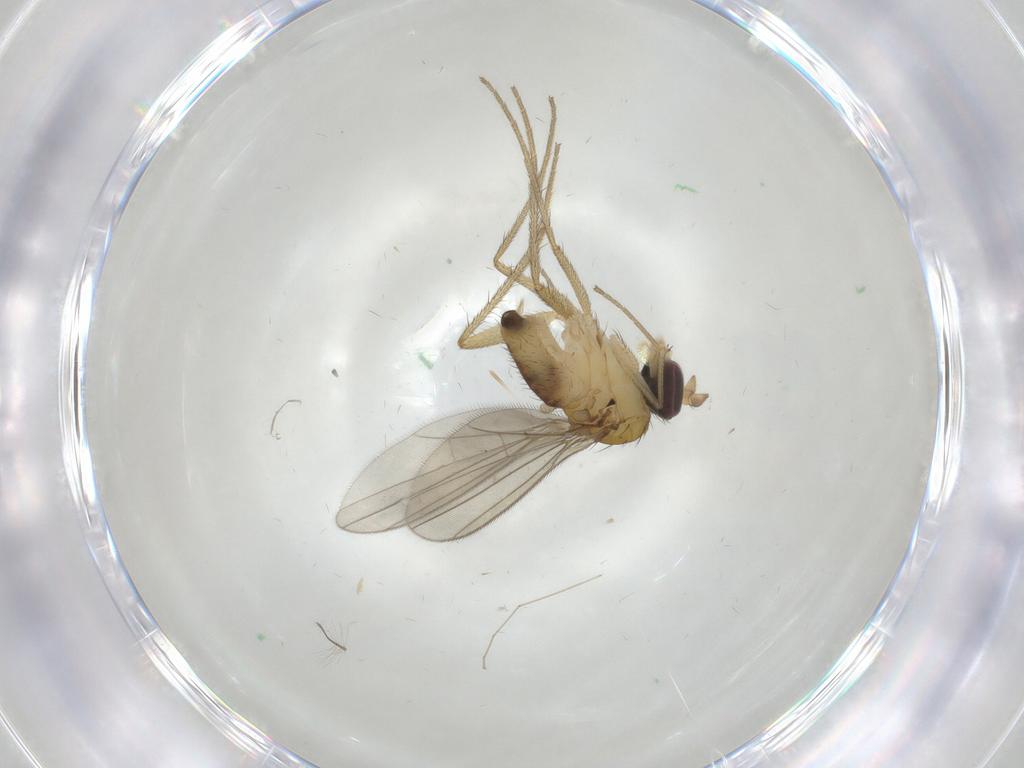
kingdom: Animalia
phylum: Arthropoda
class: Insecta
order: Diptera
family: Dolichopodidae
